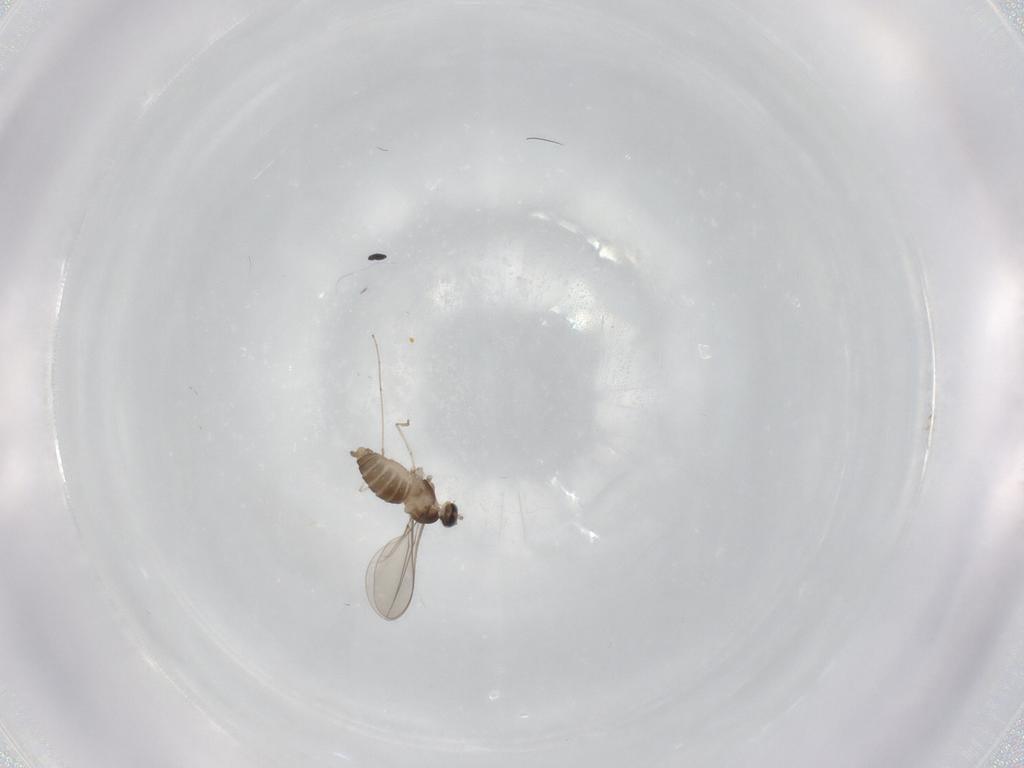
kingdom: Animalia
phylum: Arthropoda
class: Insecta
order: Diptera
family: Cecidomyiidae
